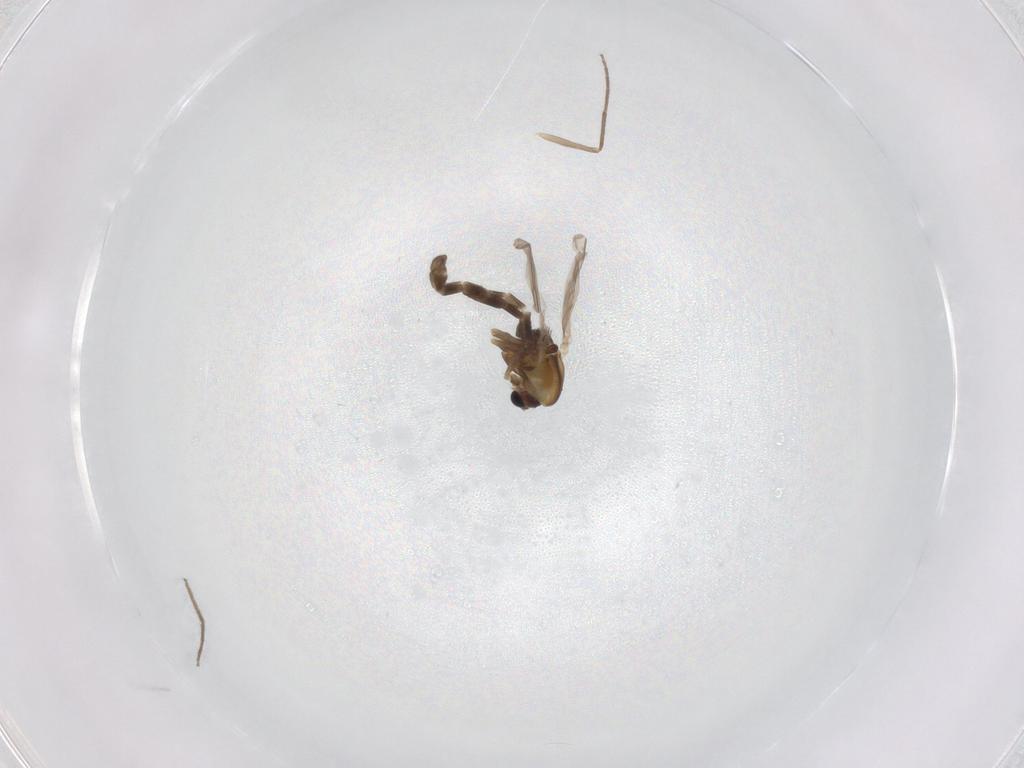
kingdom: Animalia
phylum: Arthropoda
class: Insecta
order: Diptera
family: Chironomidae
